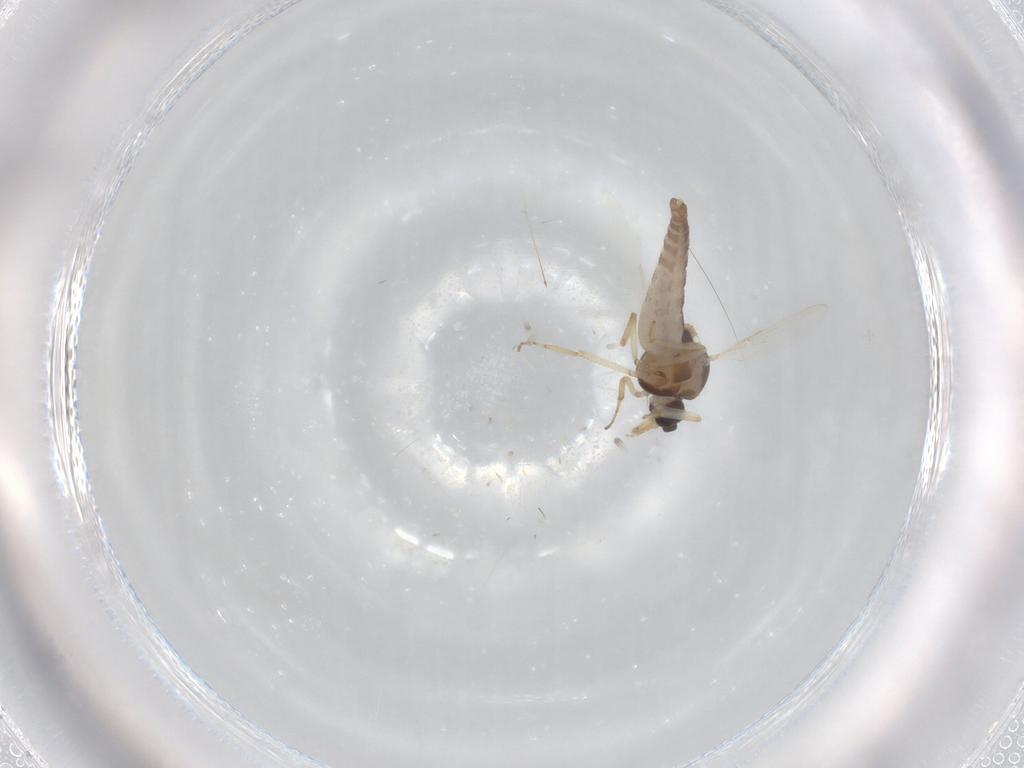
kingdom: Animalia
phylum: Arthropoda
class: Insecta
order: Diptera
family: Ceratopogonidae
